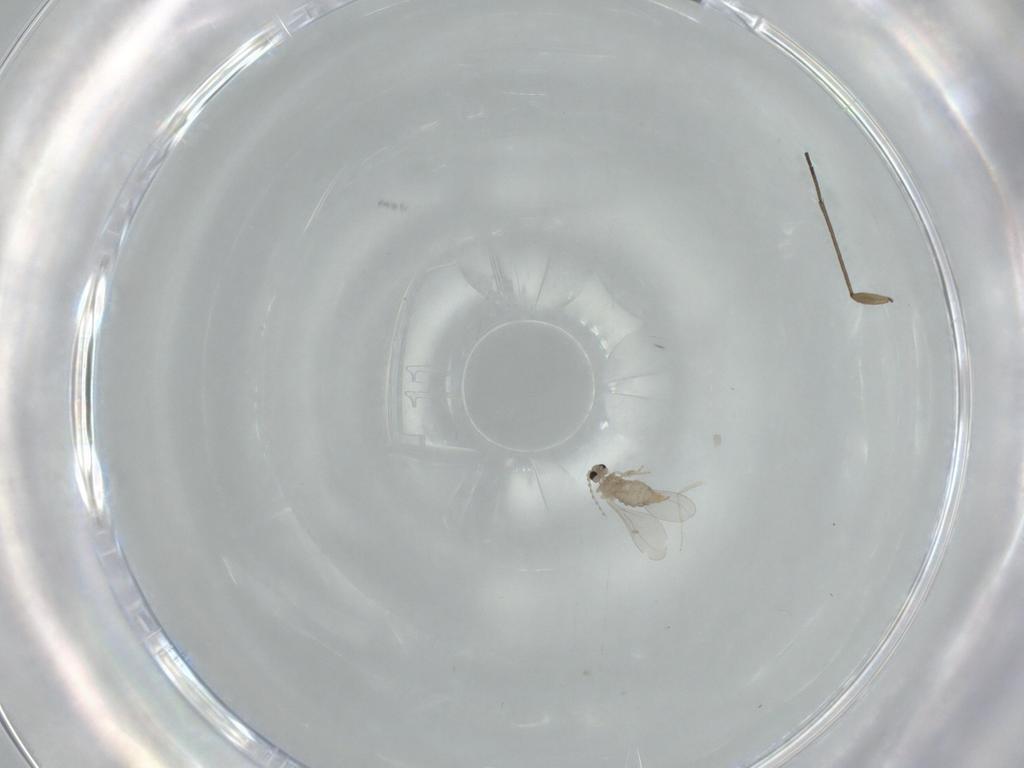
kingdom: Animalia
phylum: Arthropoda
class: Insecta
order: Diptera
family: Cecidomyiidae
